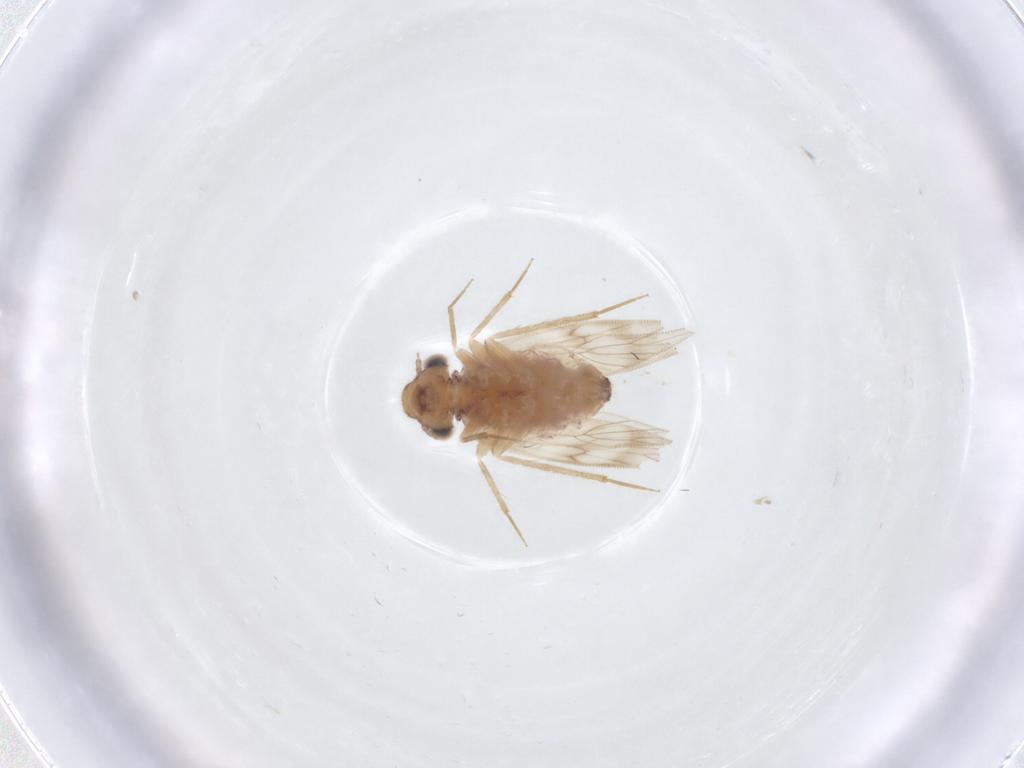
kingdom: Animalia
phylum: Arthropoda
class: Insecta
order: Psocodea
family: Lepidopsocidae
